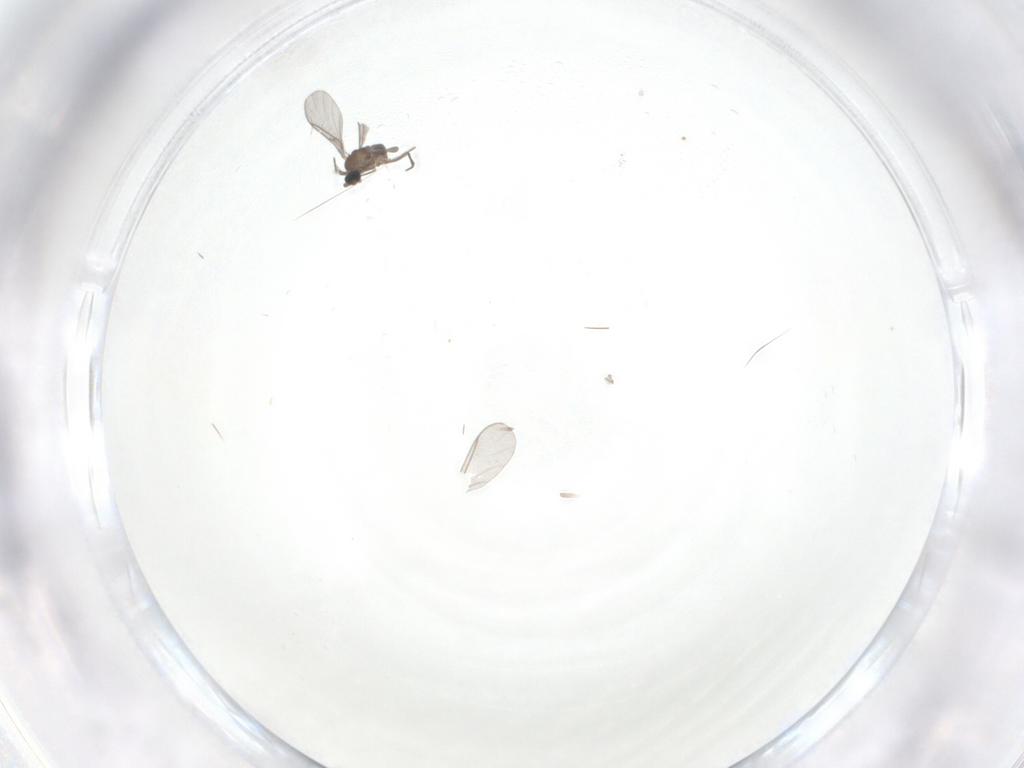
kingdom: Animalia
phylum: Arthropoda
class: Insecta
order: Diptera
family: Sciaridae
